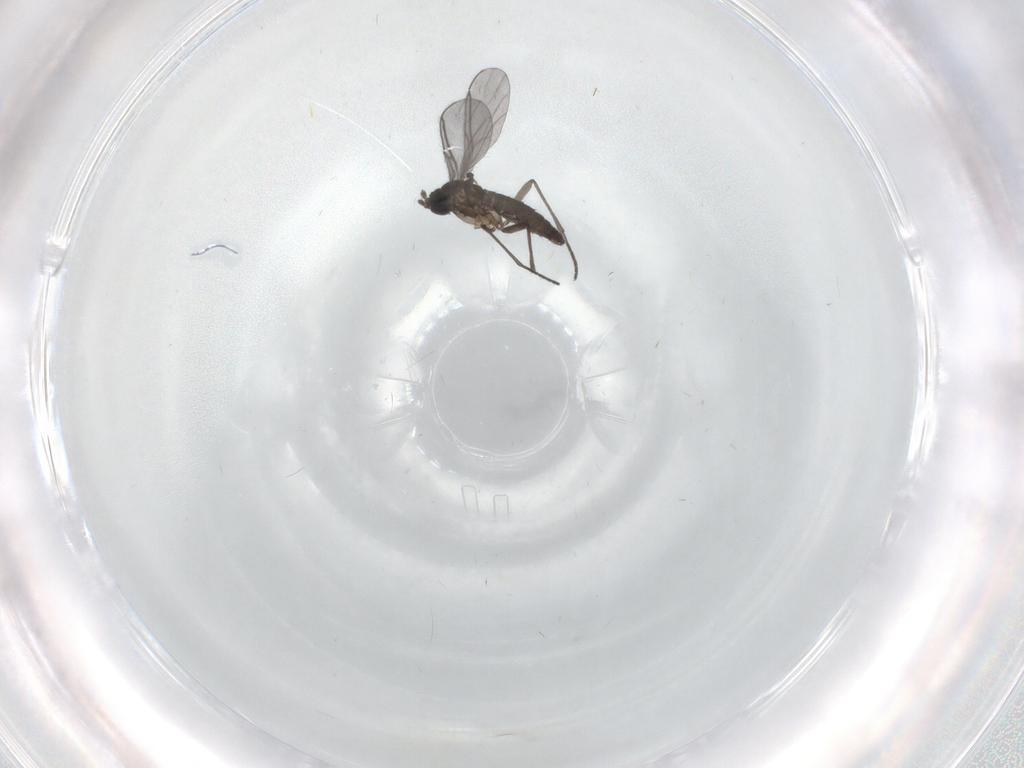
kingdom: Animalia
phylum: Arthropoda
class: Insecta
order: Diptera
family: Chironomidae
